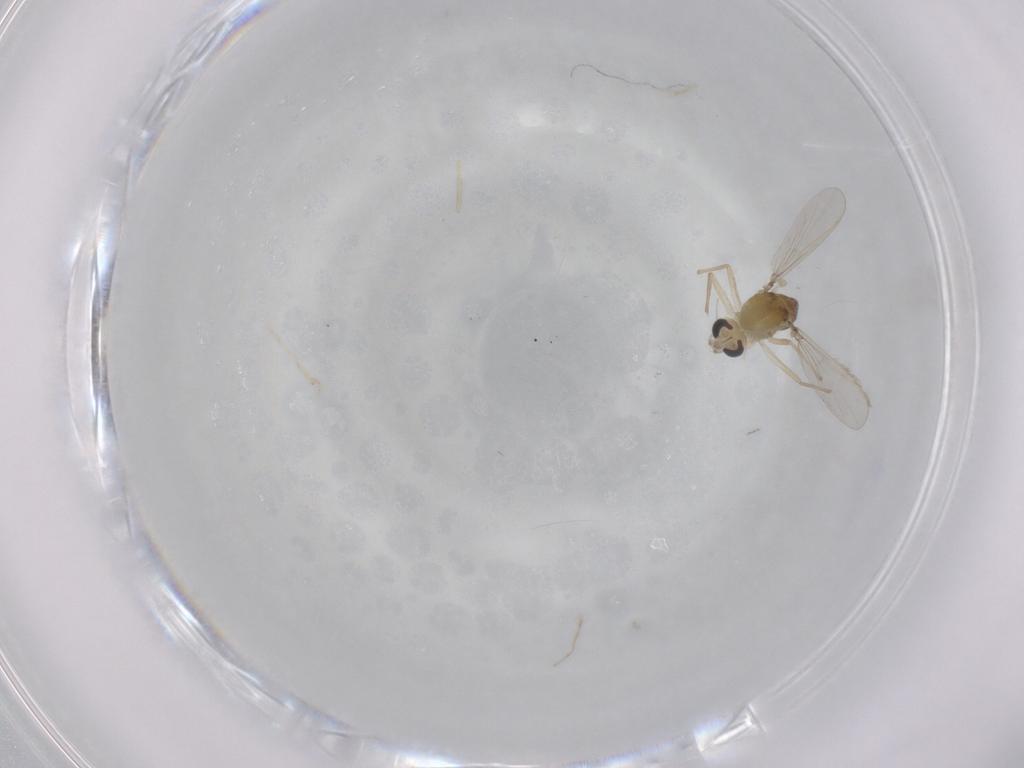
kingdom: Animalia
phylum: Arthropoda
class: Insecta
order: Diptera
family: Chironomidae
